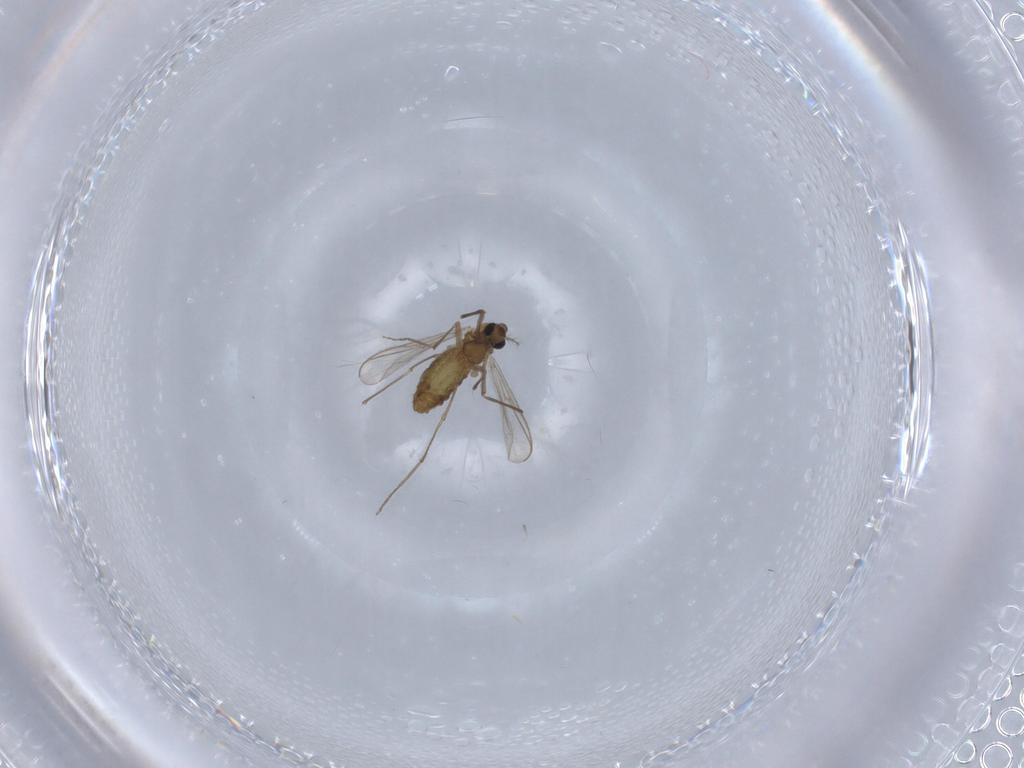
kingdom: Animalia
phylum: Arthropoda
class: Insecta
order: Diptera
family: Chironomidae
